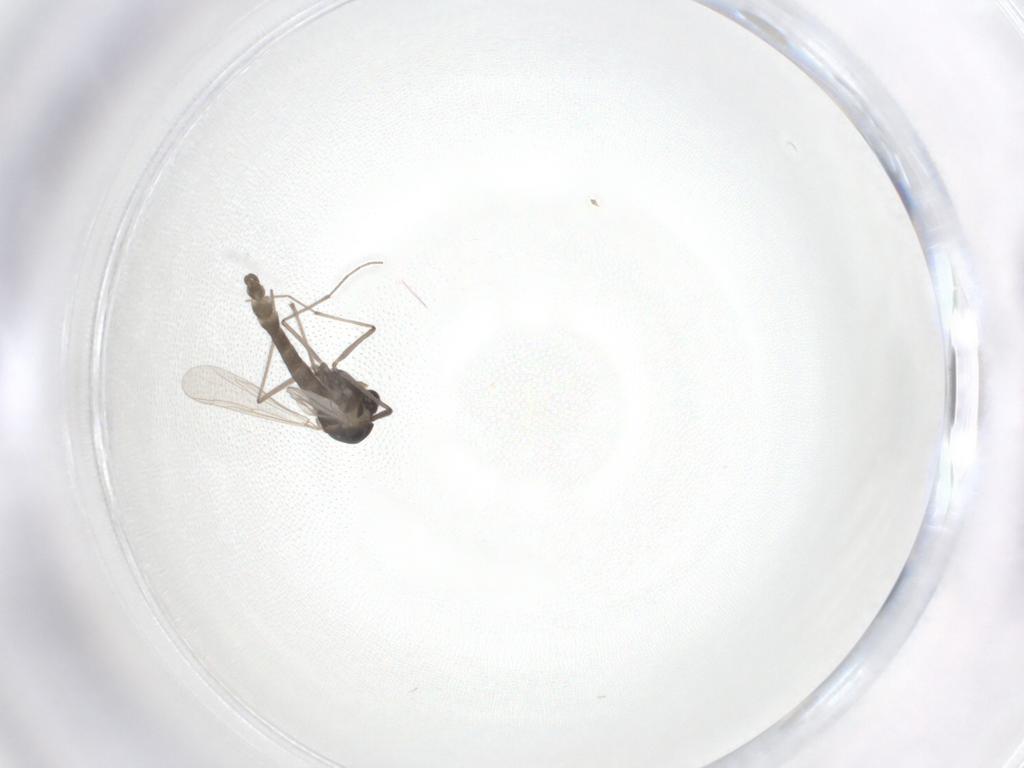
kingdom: Animalia
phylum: Arthropoda
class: Insecta
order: Diptera
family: Chironomidae
